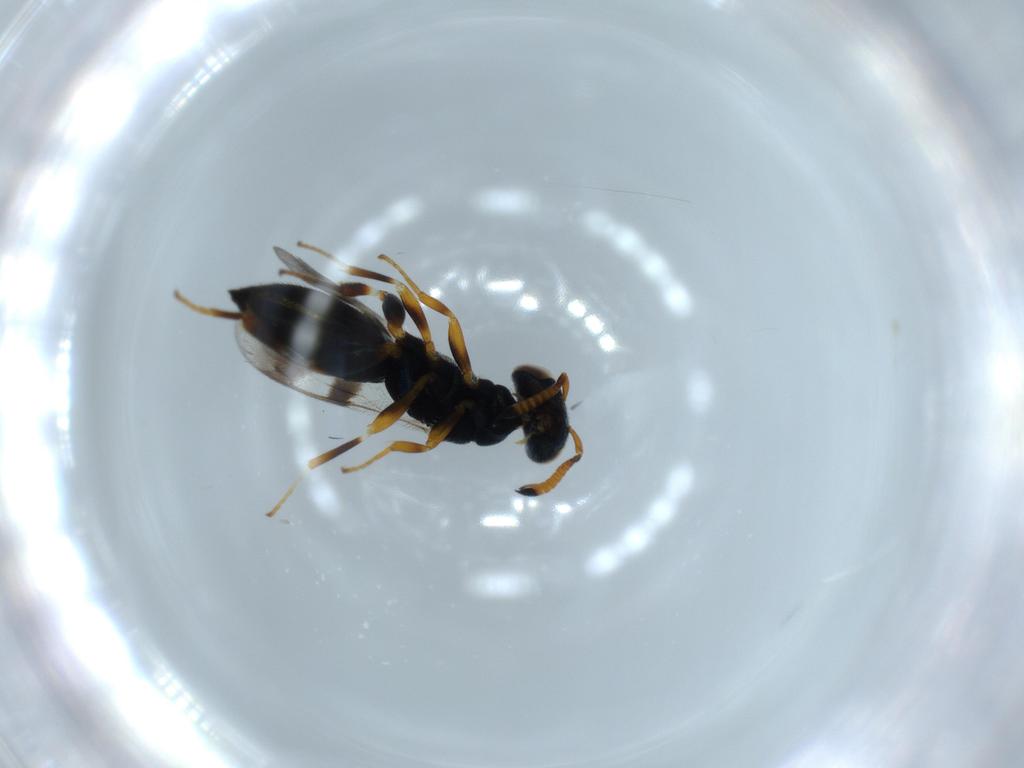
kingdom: Animalia
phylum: Arthropoda
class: Insecta
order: Hymenoptera
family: Cleonyminae
